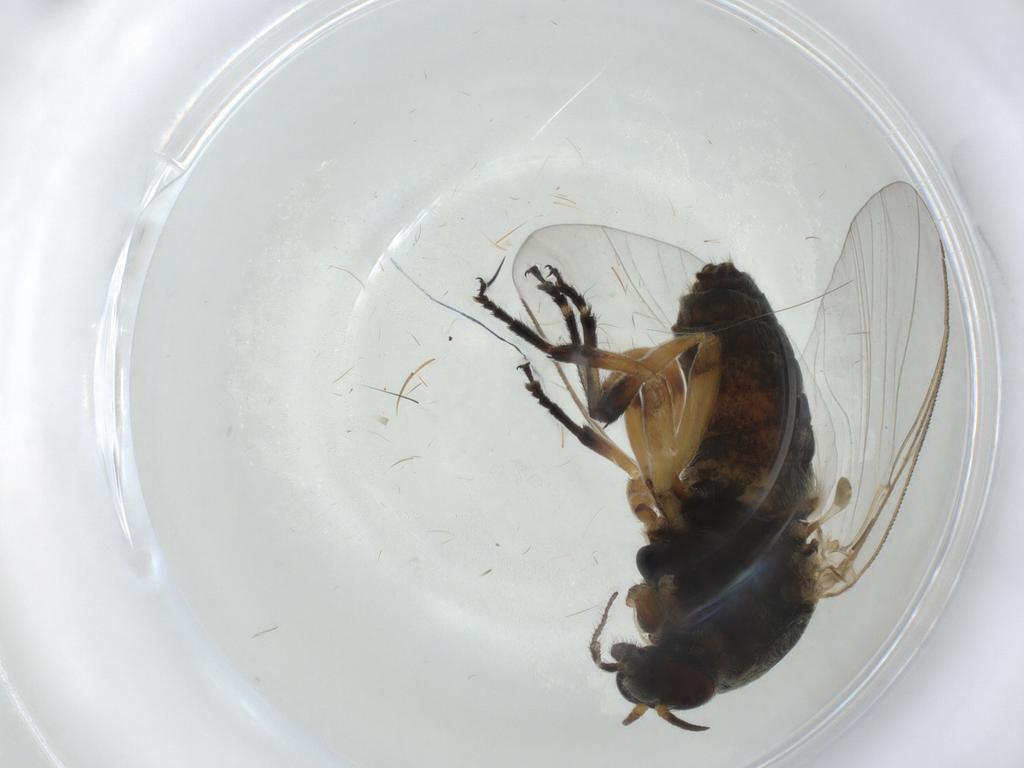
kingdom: Animalia
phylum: Arthropoda
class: Insecta
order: Diptera
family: Simuliidae
